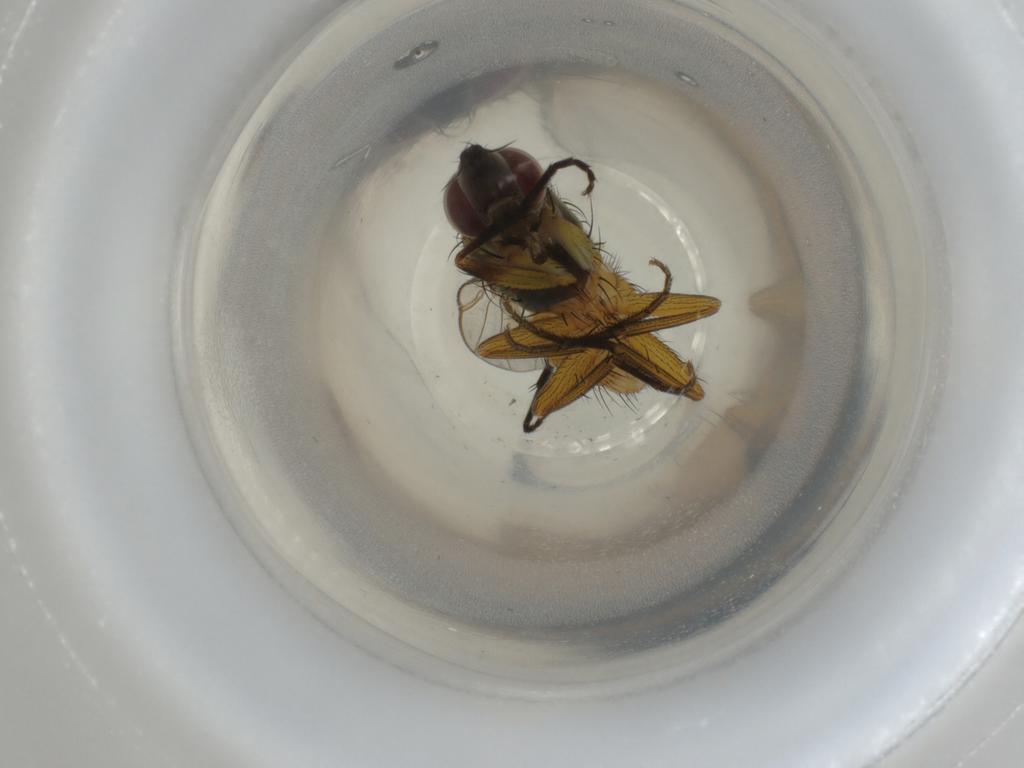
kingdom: Animalia
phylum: Arthropoda
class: Insecta
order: Diptera
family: Muscidae
